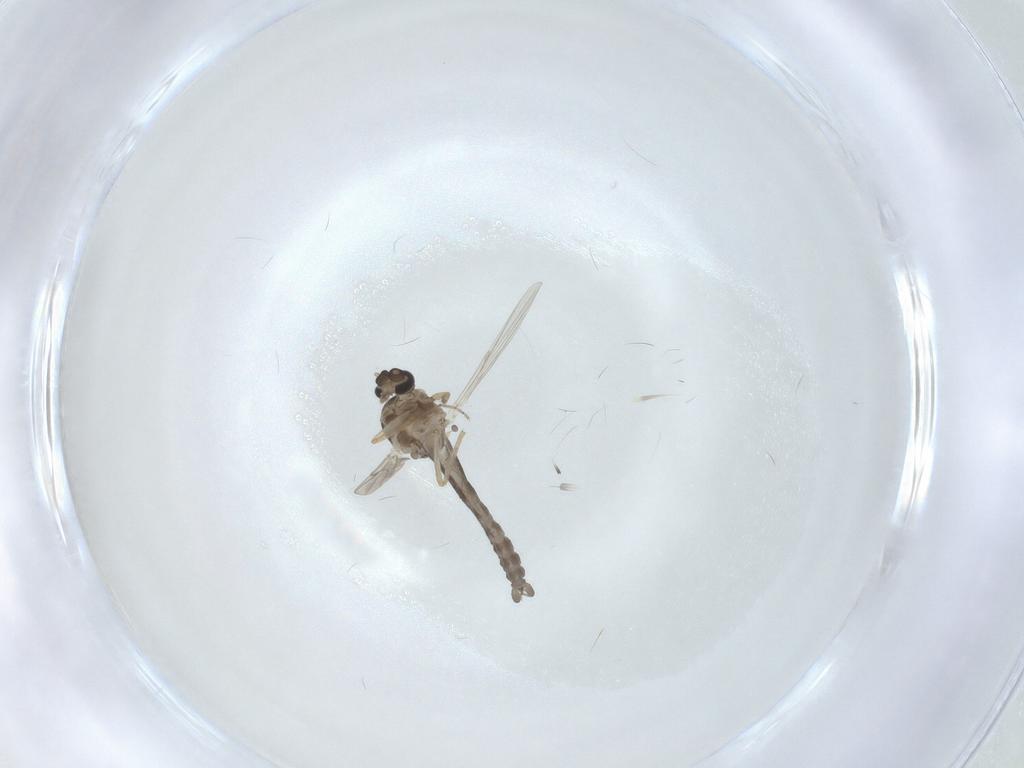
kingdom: Animalia
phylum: Arthropoda
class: Insecta
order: Diptera
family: Ceratopogonidae
